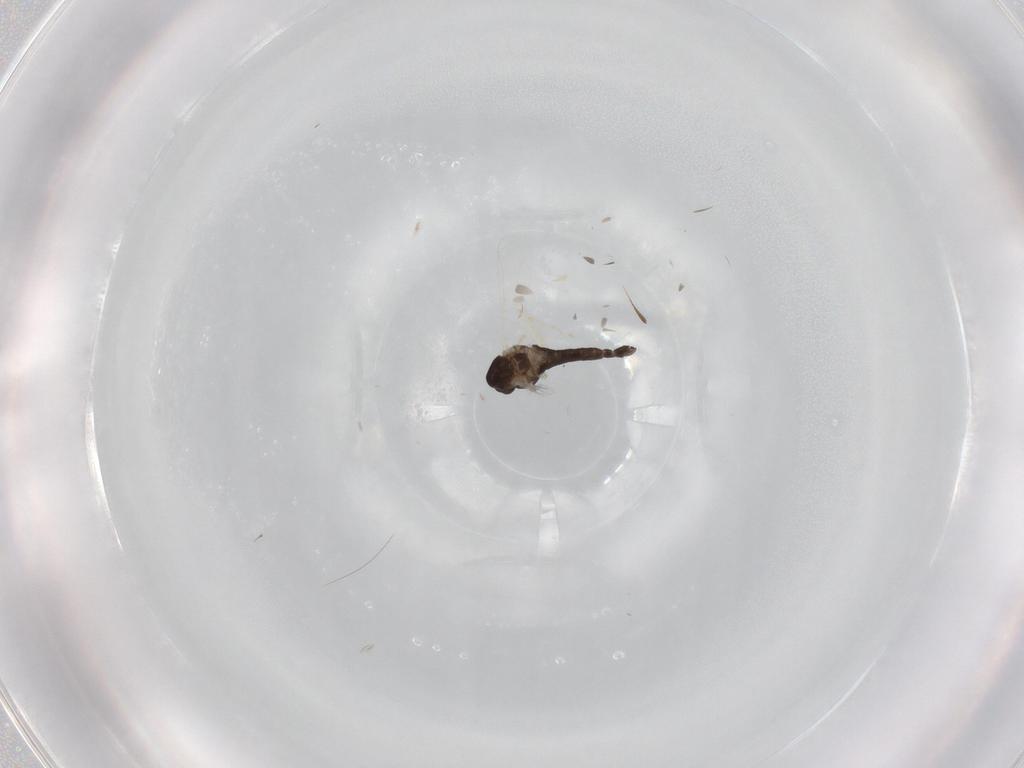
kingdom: Animalia
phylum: Arthropoda
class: Insecta
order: Diptera
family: Chironomidae
